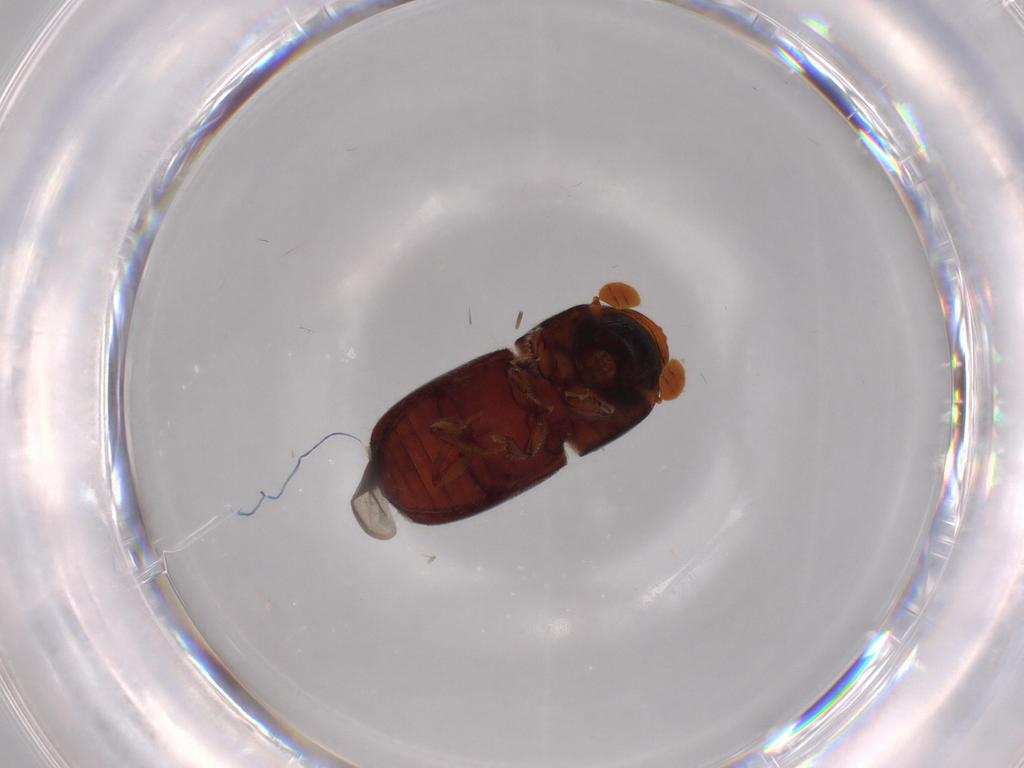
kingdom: Animalia
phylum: Arthropoda
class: Insecta
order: Coleoptera
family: Curculionidae
